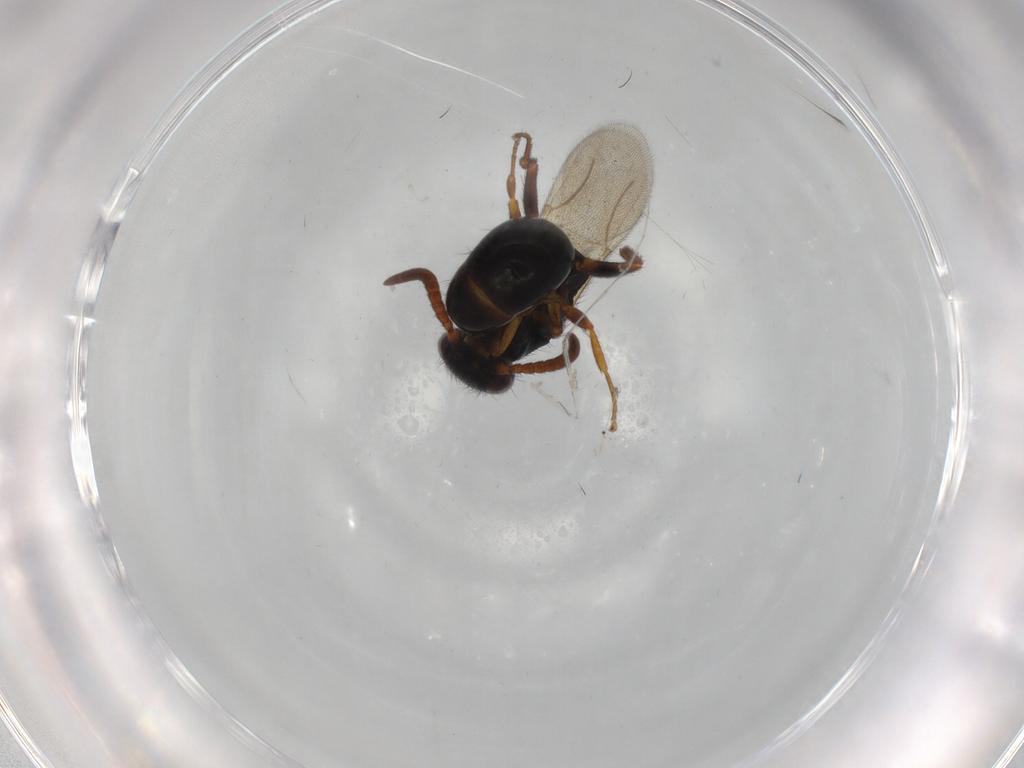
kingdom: Animalia
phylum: Arthropoda
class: Insecta
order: Hymenoptera
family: Bethylidae
